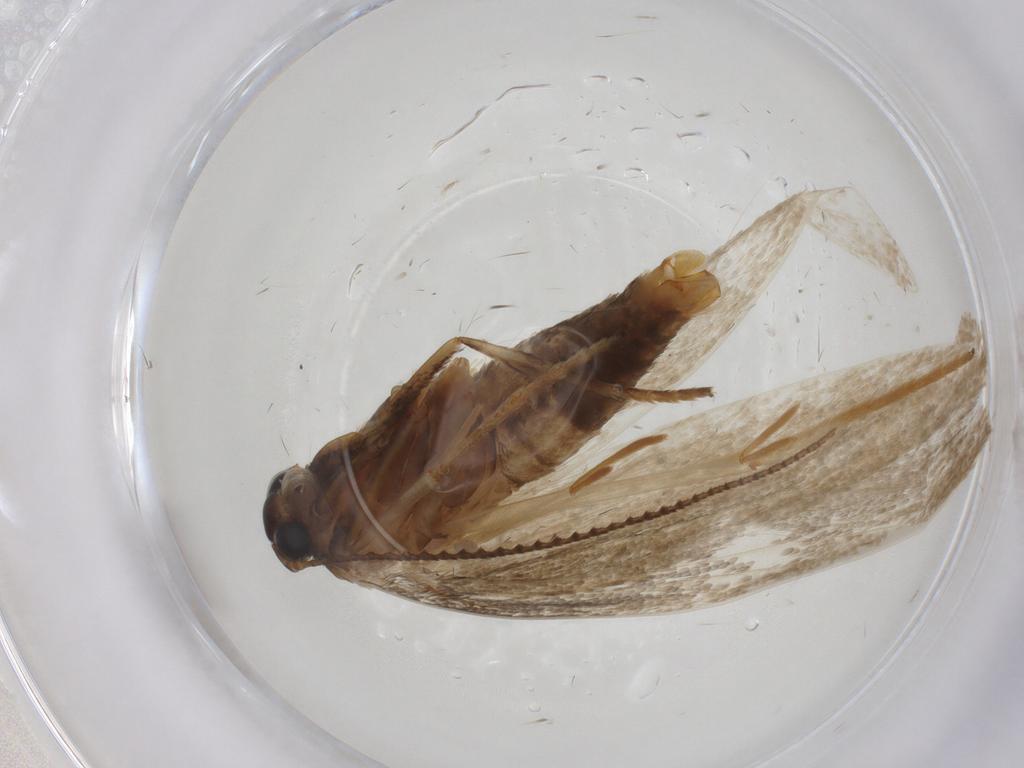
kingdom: Animalia
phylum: Arthropoda
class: Insecta
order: Lepidoptera
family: Erebidae
